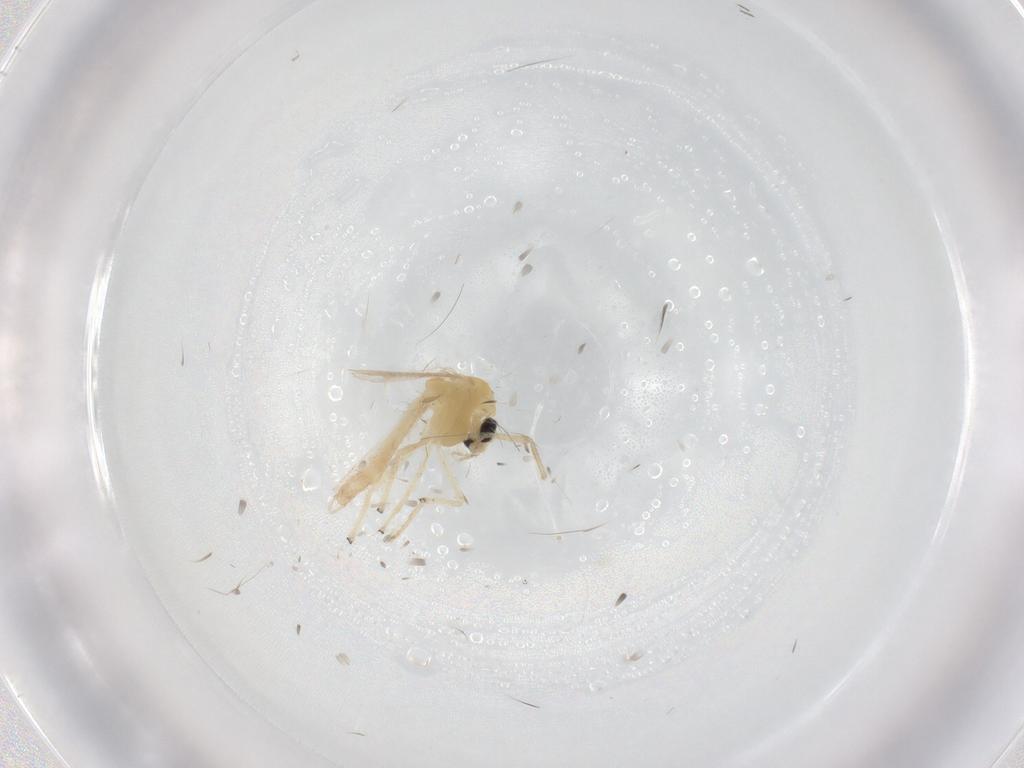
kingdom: Animalia
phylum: Arthropoda
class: Insecta
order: Diptera
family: Chironomidae
